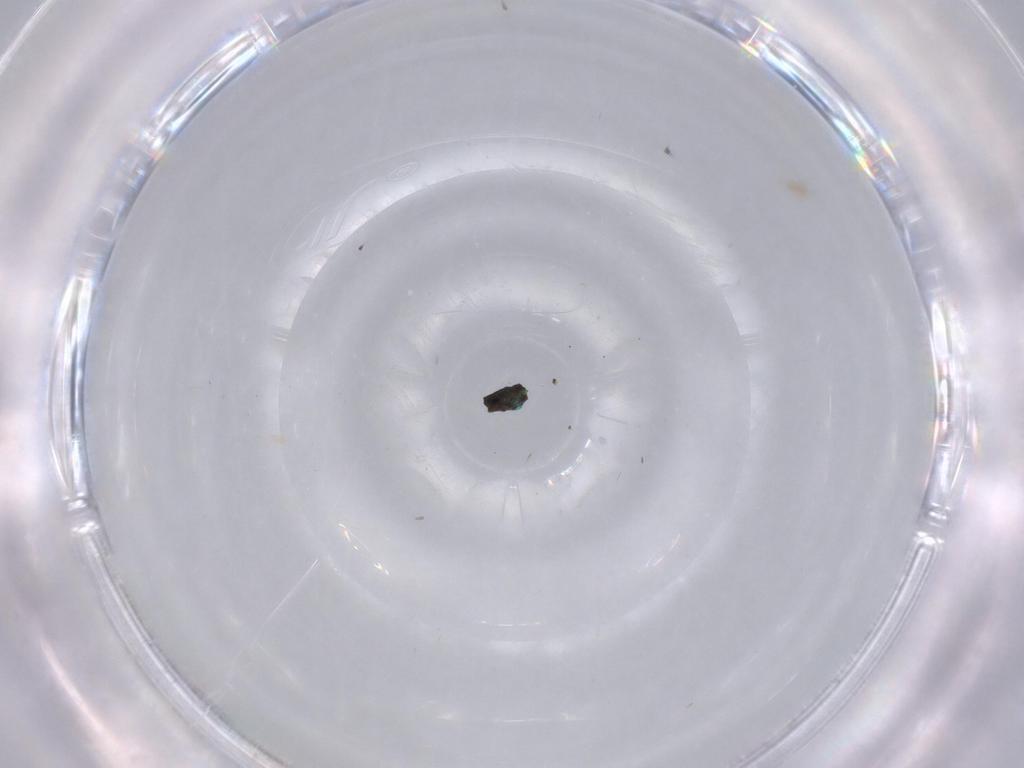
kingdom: Animalia
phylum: Arthropoda
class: Insecta
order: Diptera
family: Cecidomyiidae
